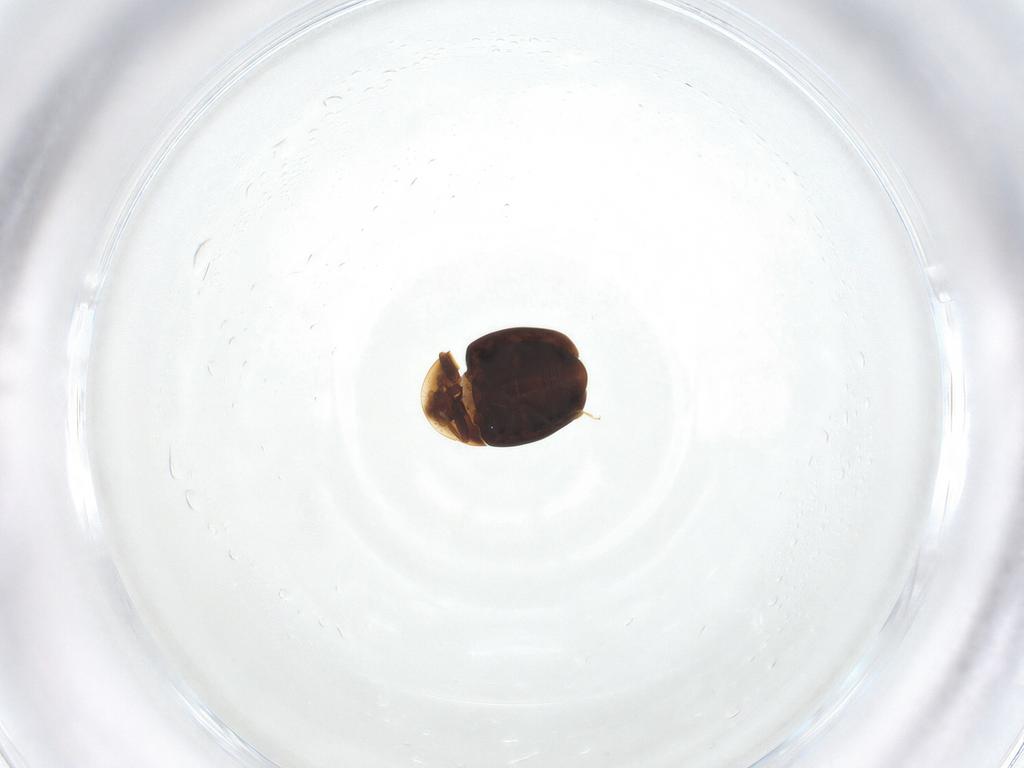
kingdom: Animalia
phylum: Arthropoda
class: Insecta
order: Coleoptera
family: Corylophidae
